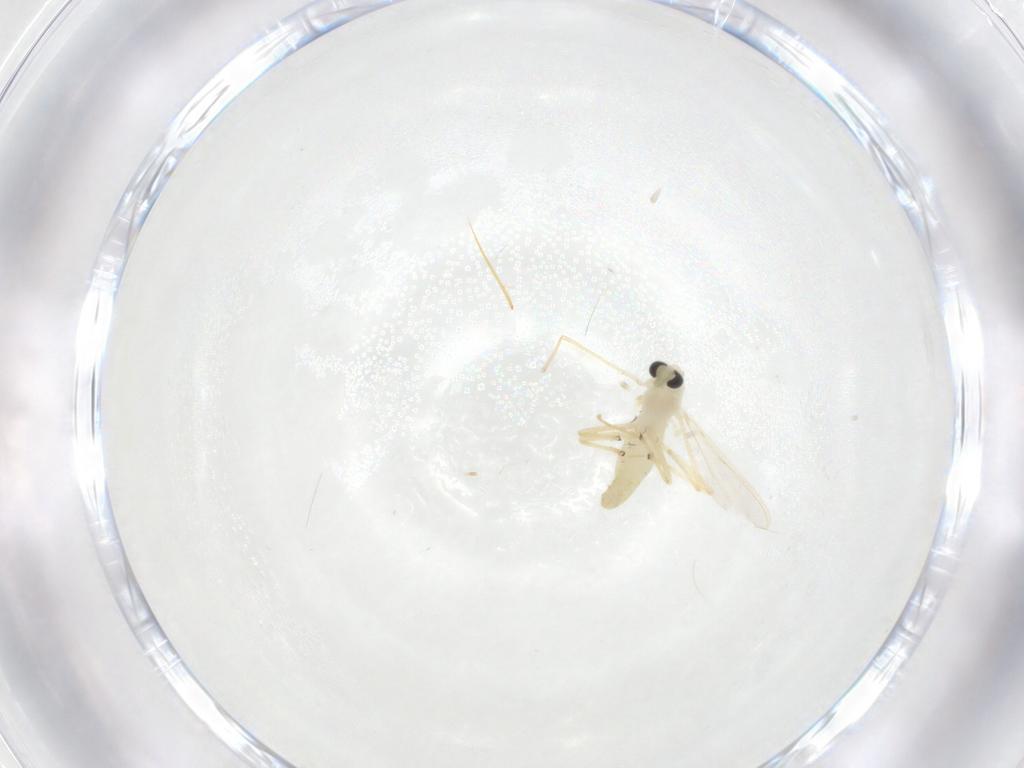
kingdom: Animalia
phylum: Arthropoda
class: Insecta
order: Diptera
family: Chironomidae
